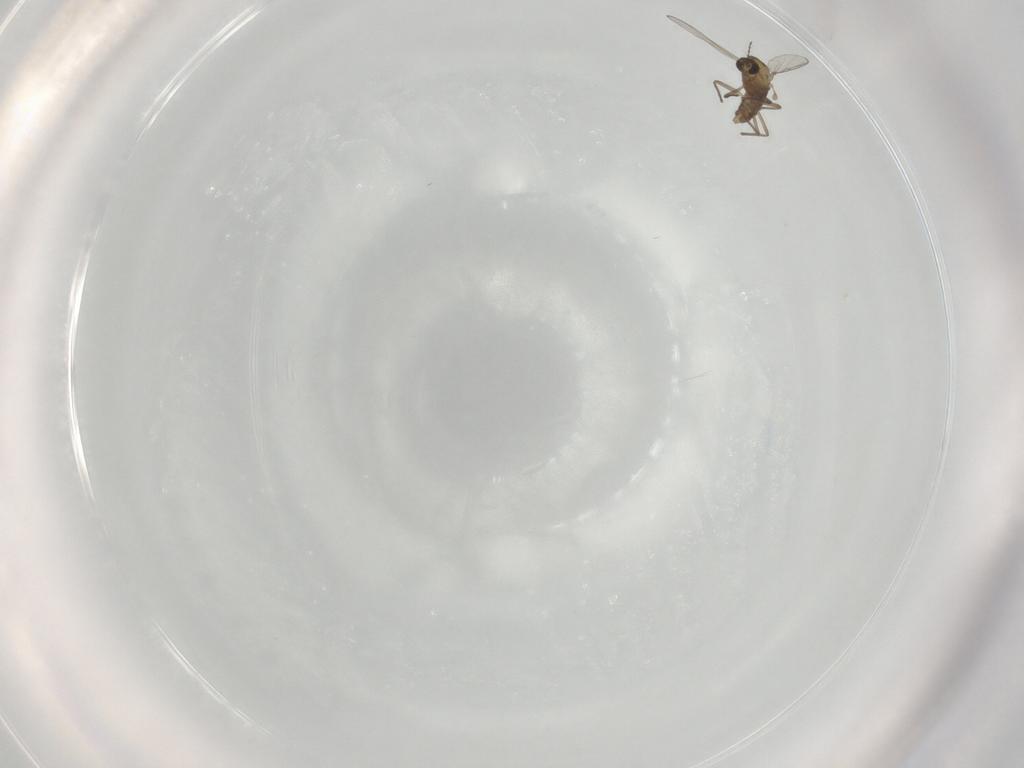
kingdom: Animalia
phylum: Arthropoda
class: Insecta
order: Diptera
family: Chironomidae
